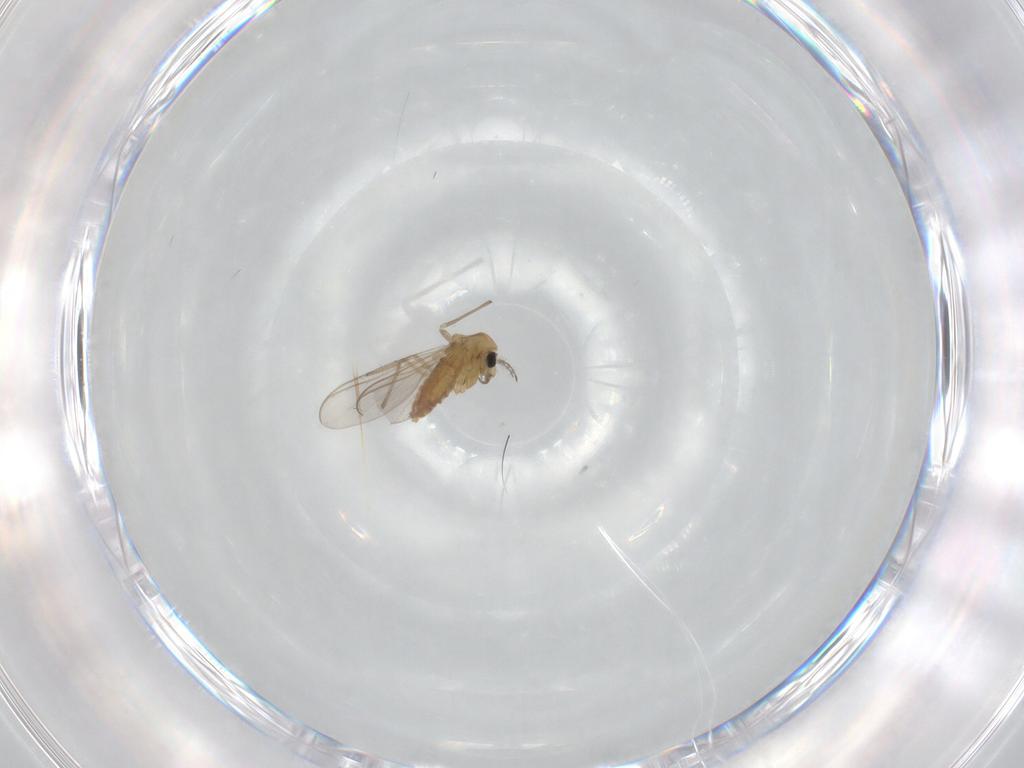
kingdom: Animalia
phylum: Arthropoda
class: Insecta
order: Diptera
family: Chironomidae
